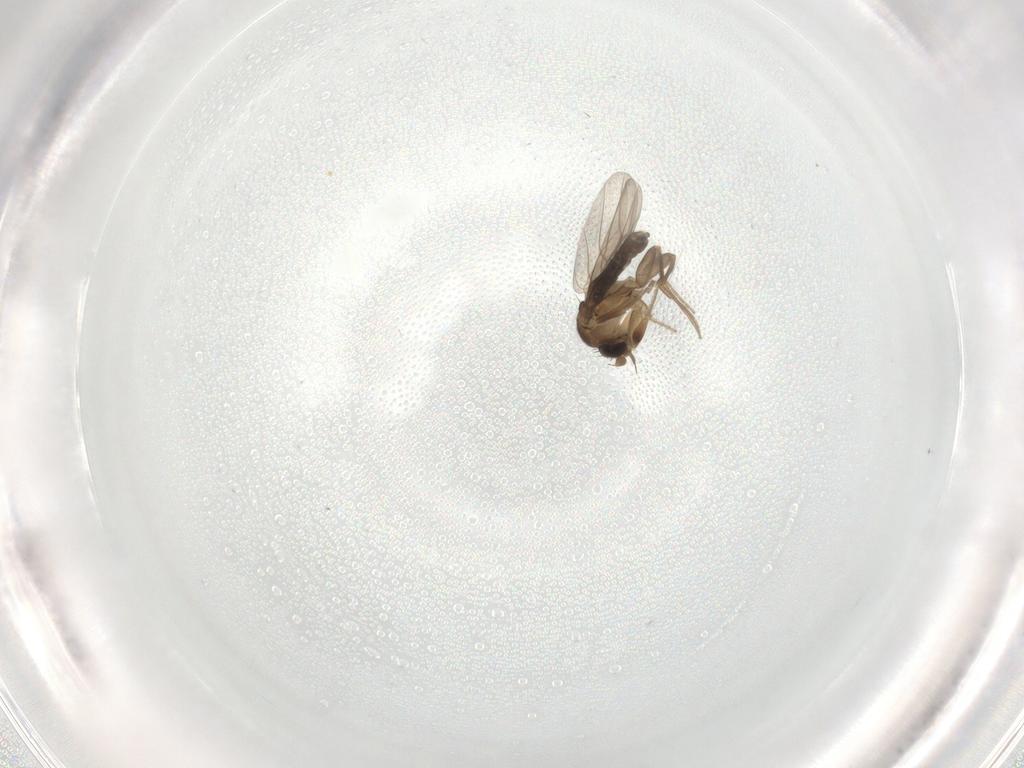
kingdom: Animalia
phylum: Arthropoda
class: Insecta
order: Diptera
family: Phoridae
